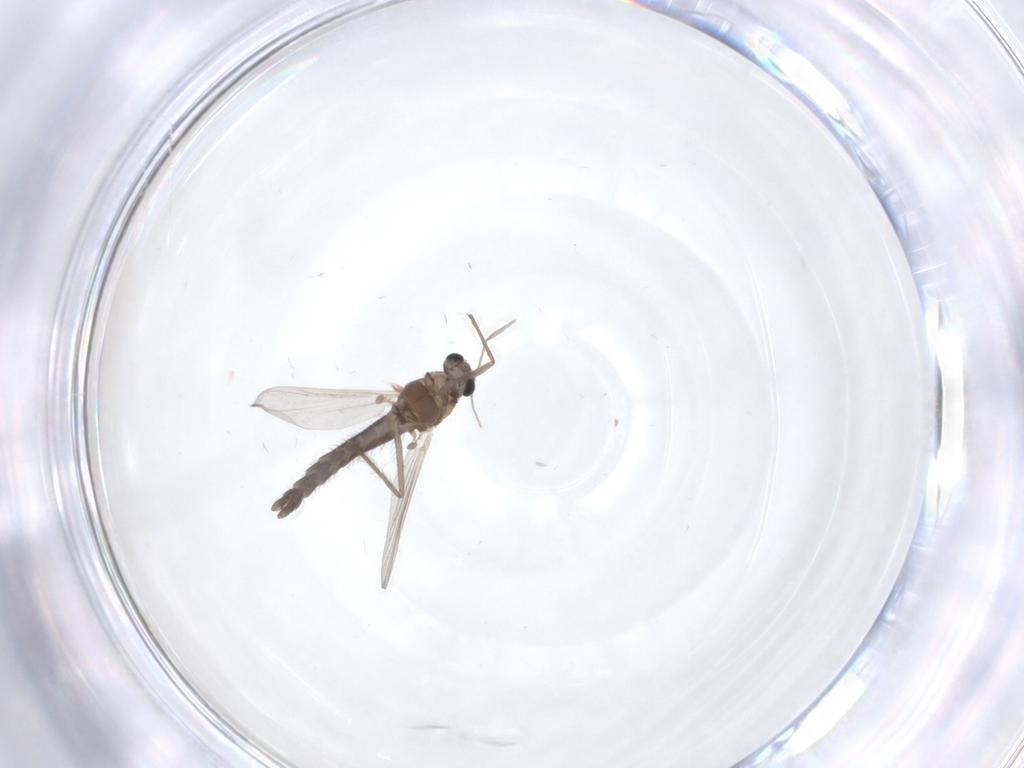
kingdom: Animalia
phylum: Arthropoda
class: Insecta
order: Diptera
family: Chironomidae
